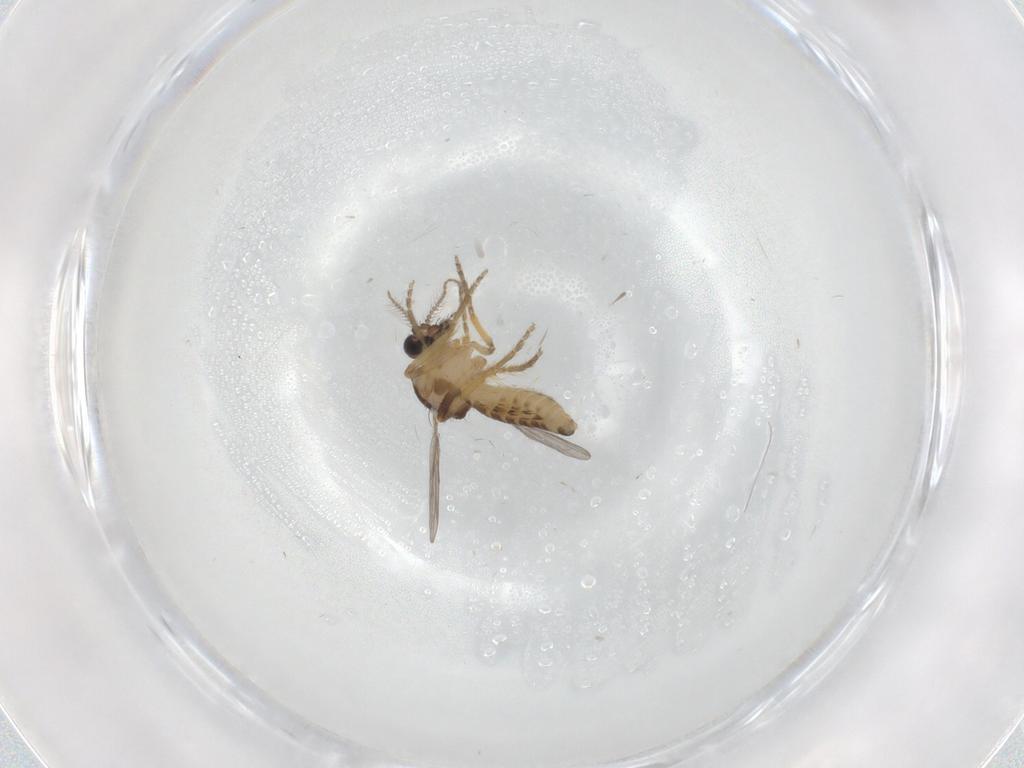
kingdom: Animalia
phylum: Arthropoda
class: Insecta
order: Diptera
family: Ceratopogonidae
